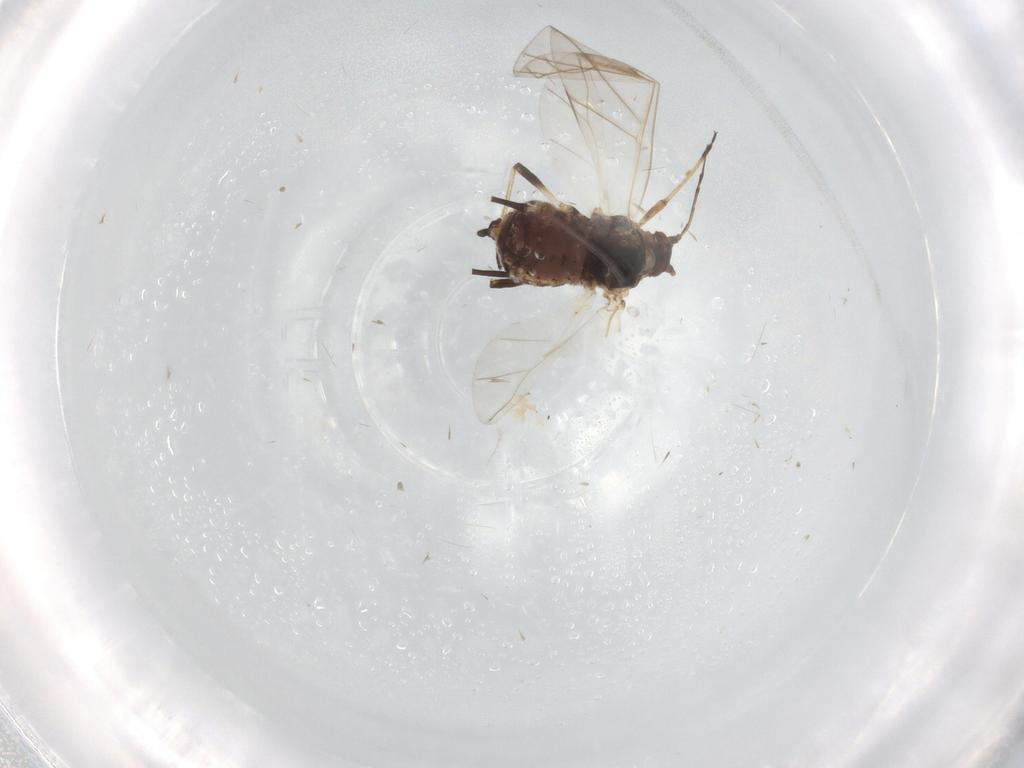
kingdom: Animalia
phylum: Arthropoda
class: Insecta
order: Hemiptera
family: Aphididae
